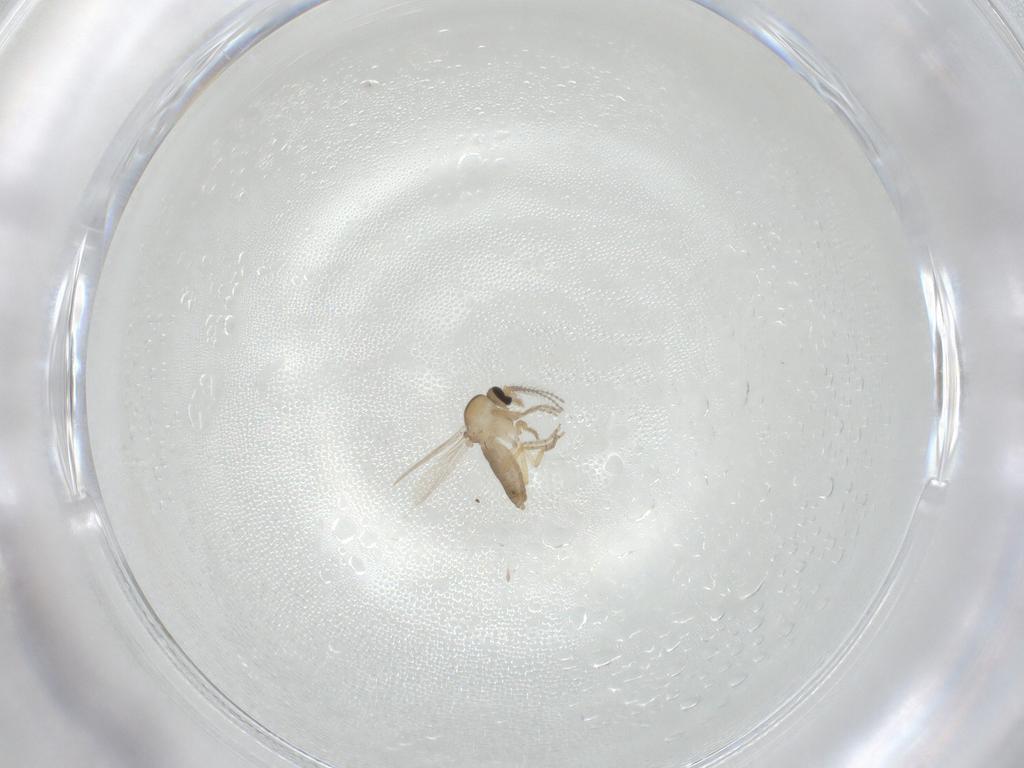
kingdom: Animalia
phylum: Arthropoda
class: Insecta
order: Diptera
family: Ceratopogonidae
